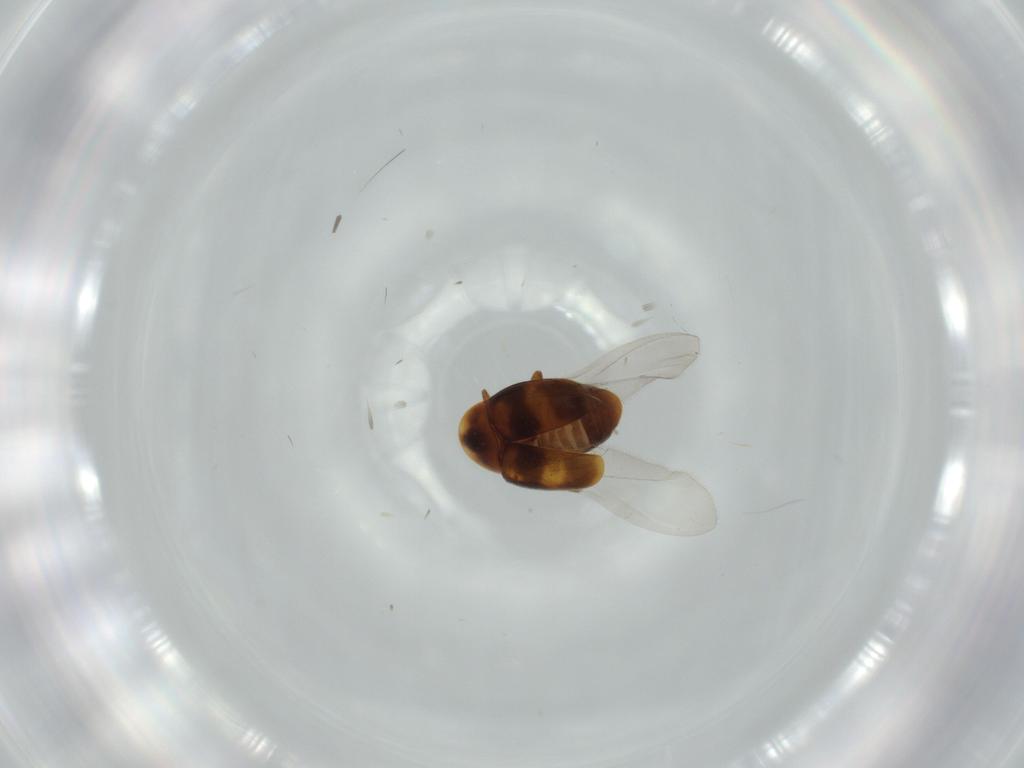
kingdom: Animalia
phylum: Arthropoda
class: Insecta
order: Coleoptera
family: Corylophidae
